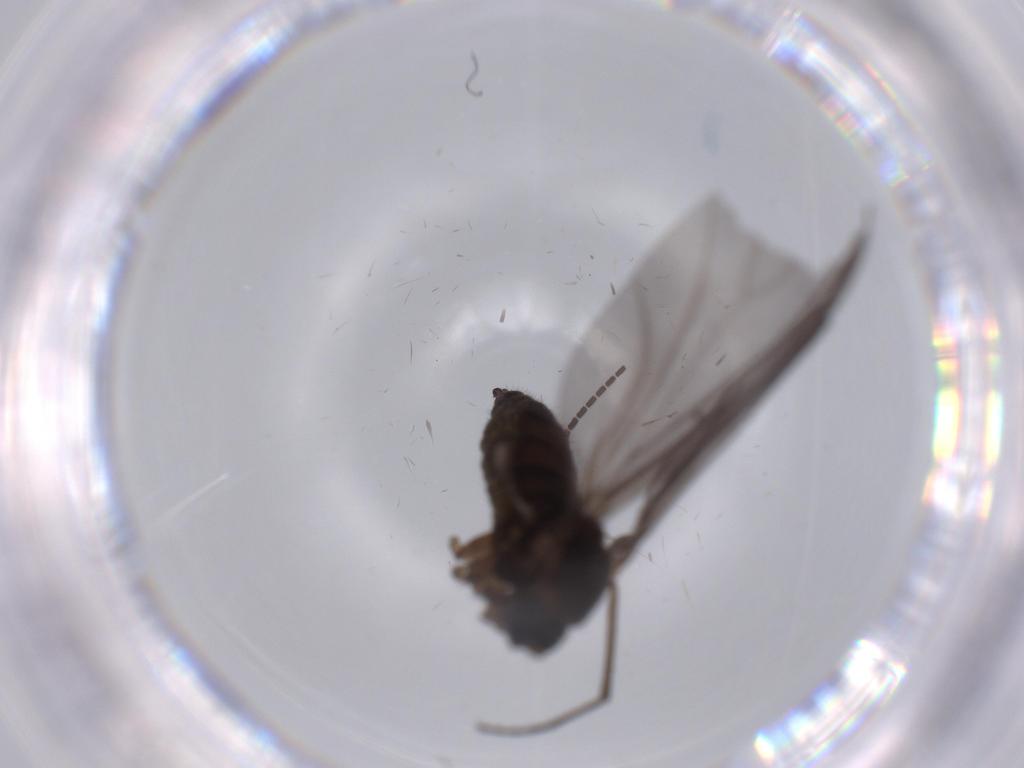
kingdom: Animalia
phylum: Arthropoda
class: Insecta
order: Diptera
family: Sciaridae
